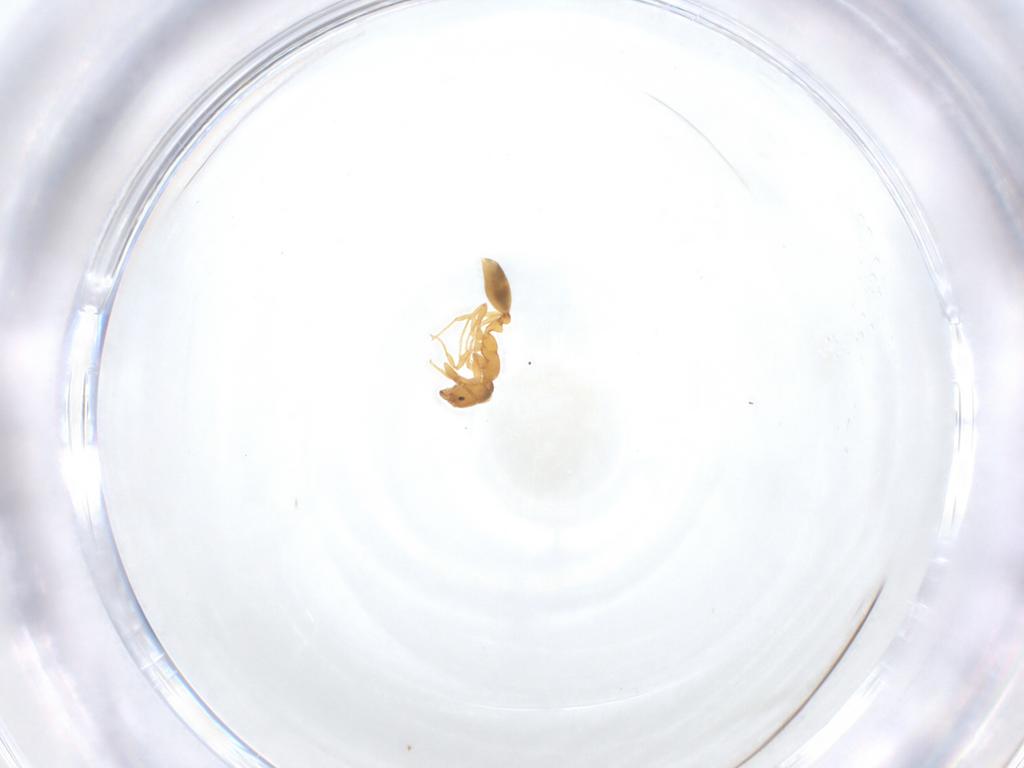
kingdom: Animalia
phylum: Arthropoda
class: Insecta
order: Hymenoptera
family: Formicidae
